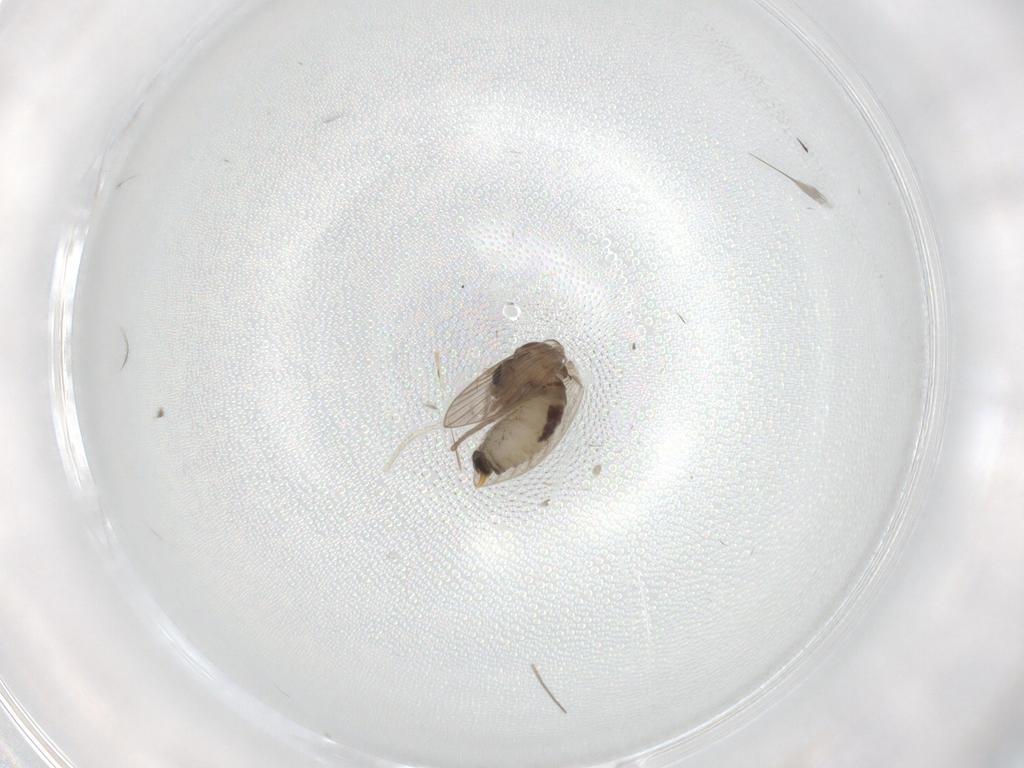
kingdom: Animalia
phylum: Arthropoda
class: Insecta
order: Diptera
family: Psychodidae
